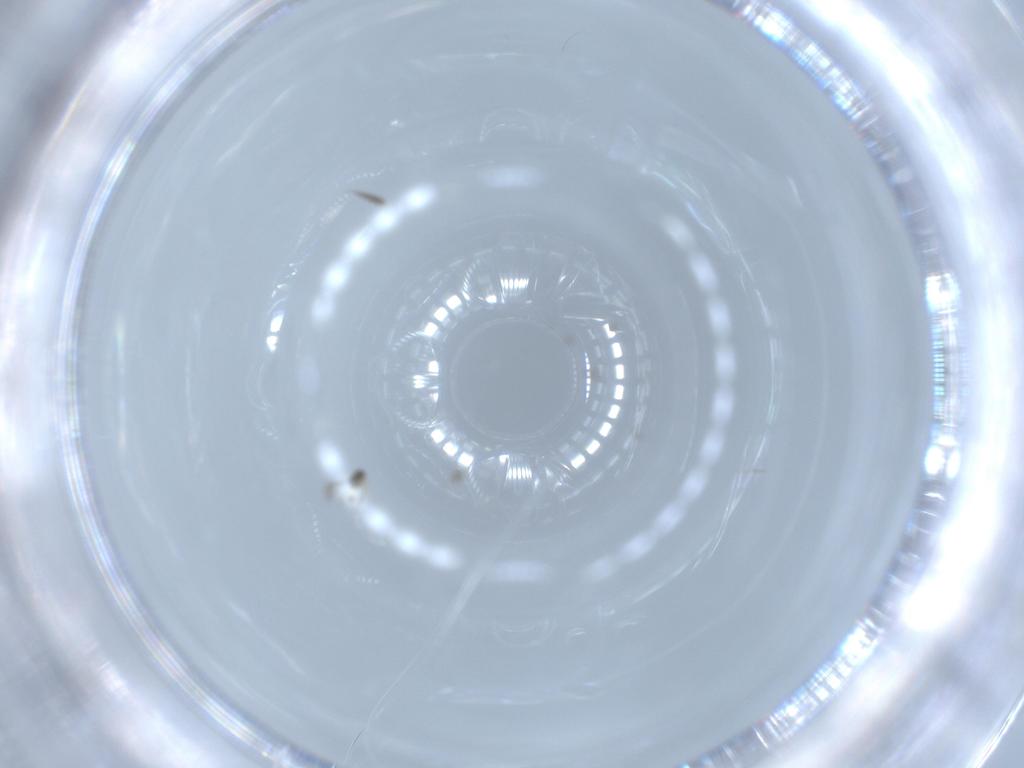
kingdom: Animalia
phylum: Arthropoda
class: Insecta
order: Hymenoptera
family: Mymaridae
